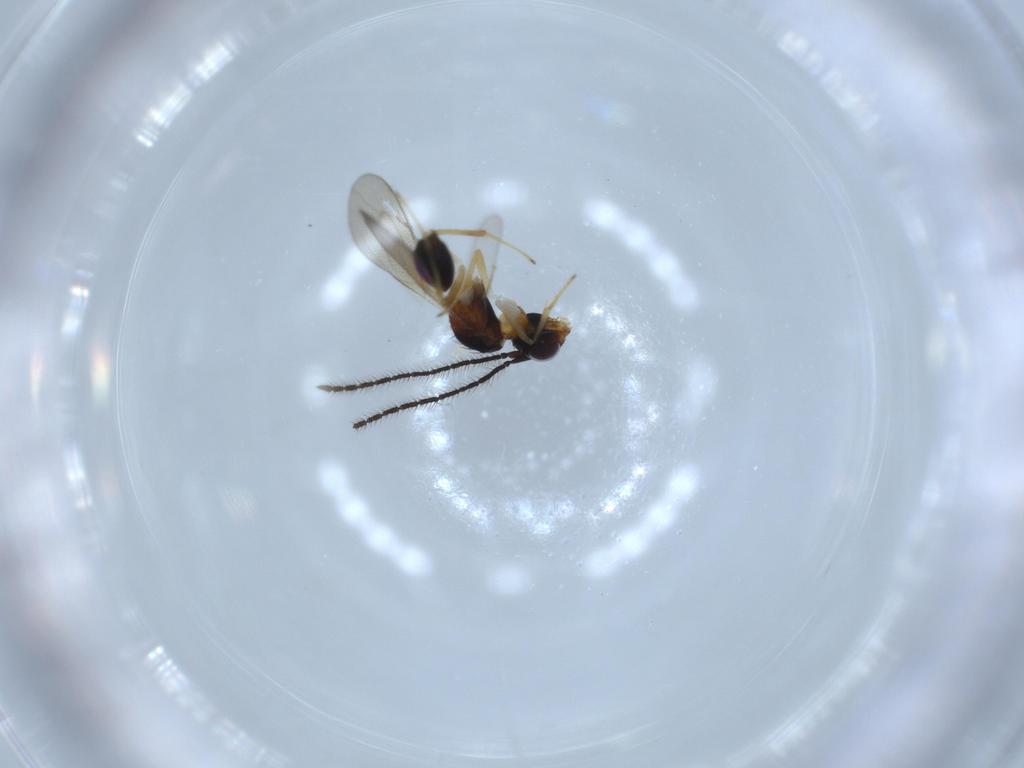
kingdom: Animalia
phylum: Arthropoda
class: Insecta
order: Hymenoptera
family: Diparidae
